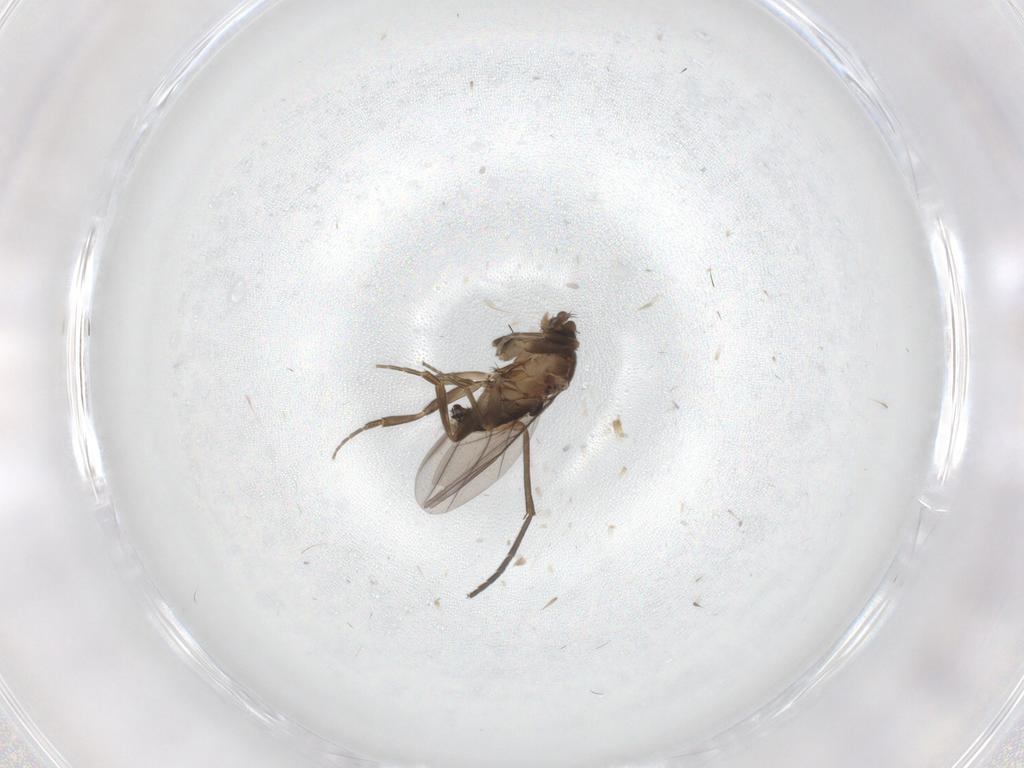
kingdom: Animalia
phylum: Arthropoda
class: Insecta
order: Diptera
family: Sciaridae
